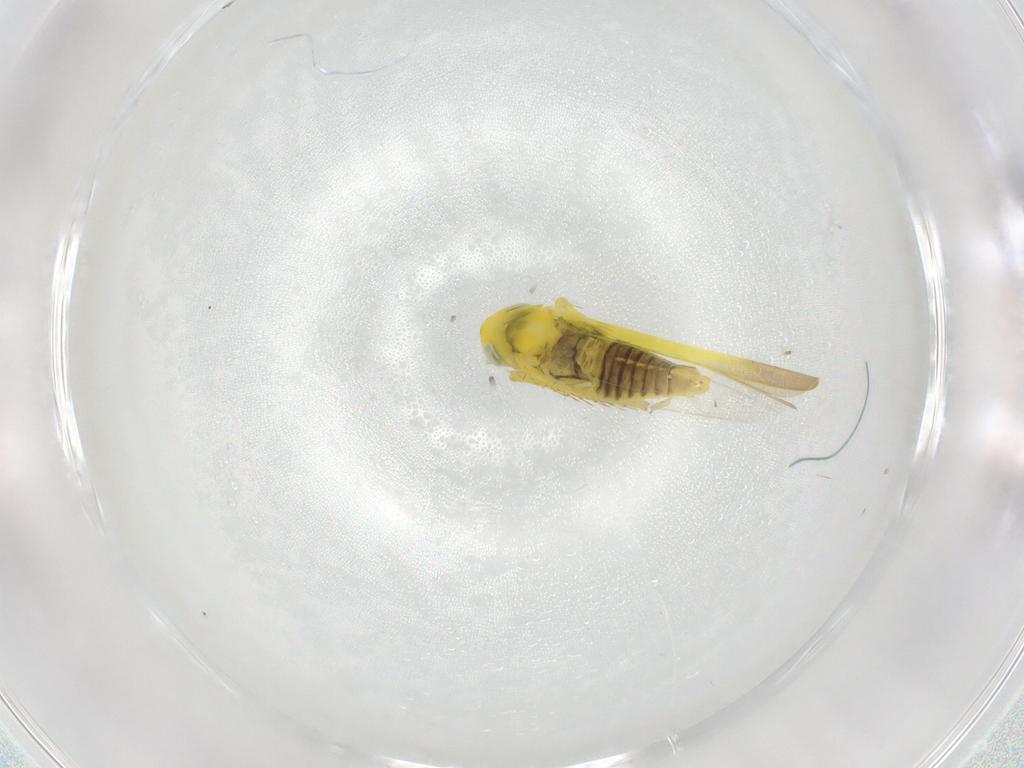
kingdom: Animalia
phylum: Arthropoda
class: Insecta
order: Hemiptera
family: Cicadellidae
